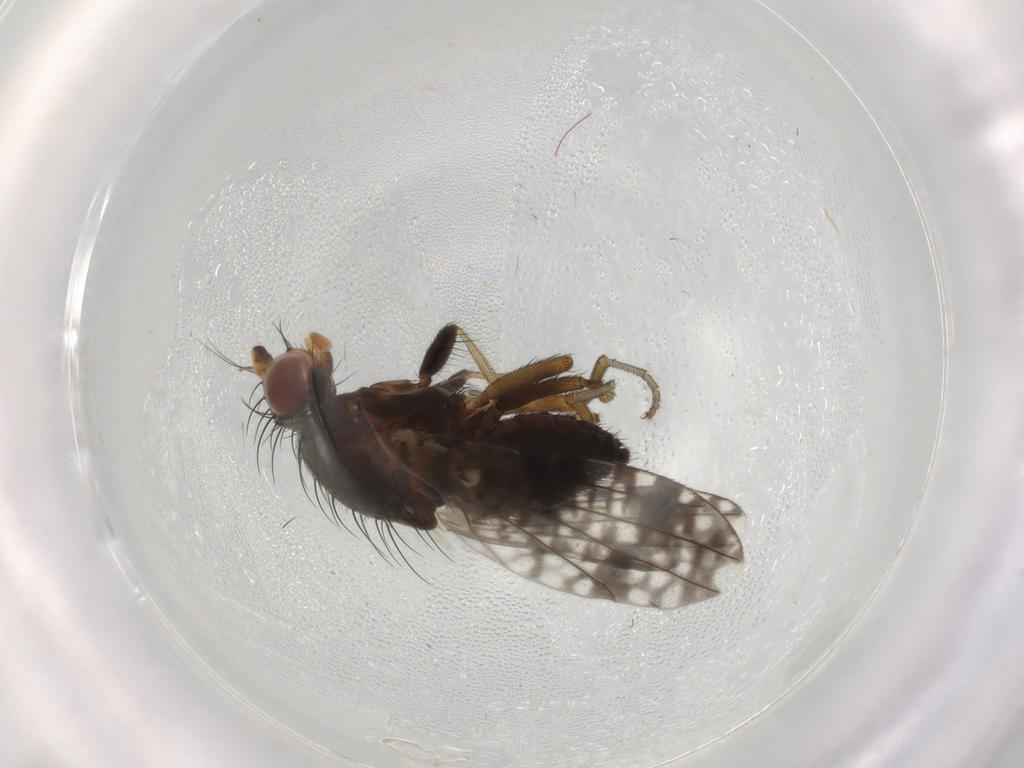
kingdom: Animalia
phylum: Arthropoda
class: Insecta
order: Diptera
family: Tephritidae
